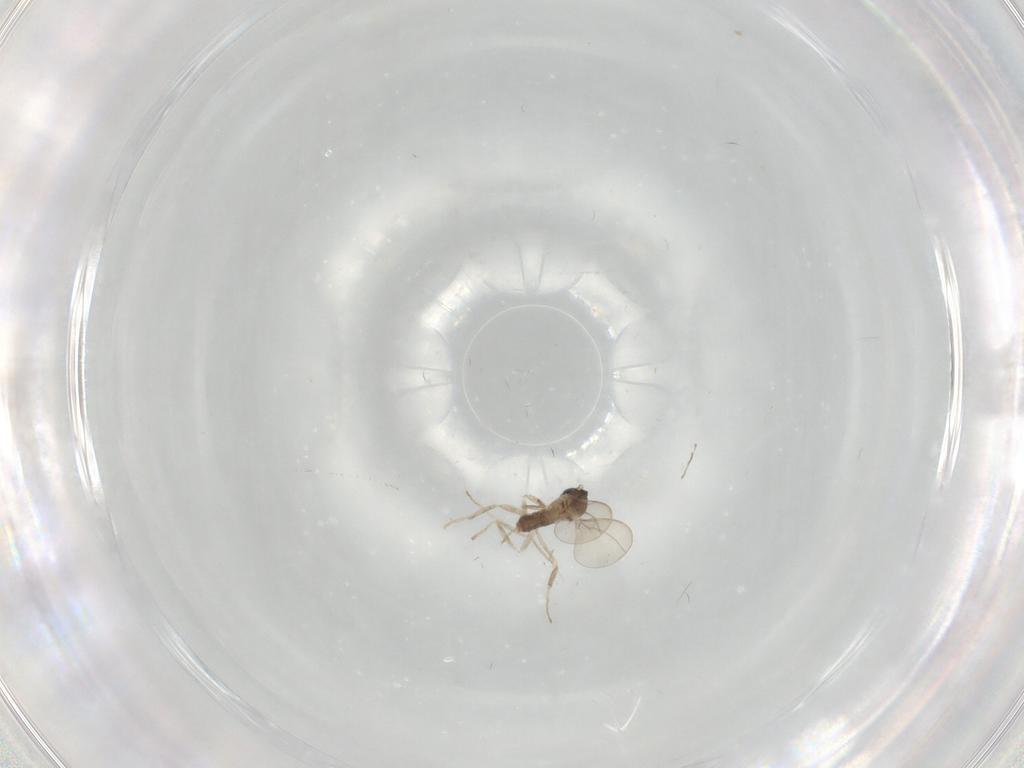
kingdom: Animalia
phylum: Arthropoda
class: Insecta
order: Diptera
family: Cecidomyiidae
